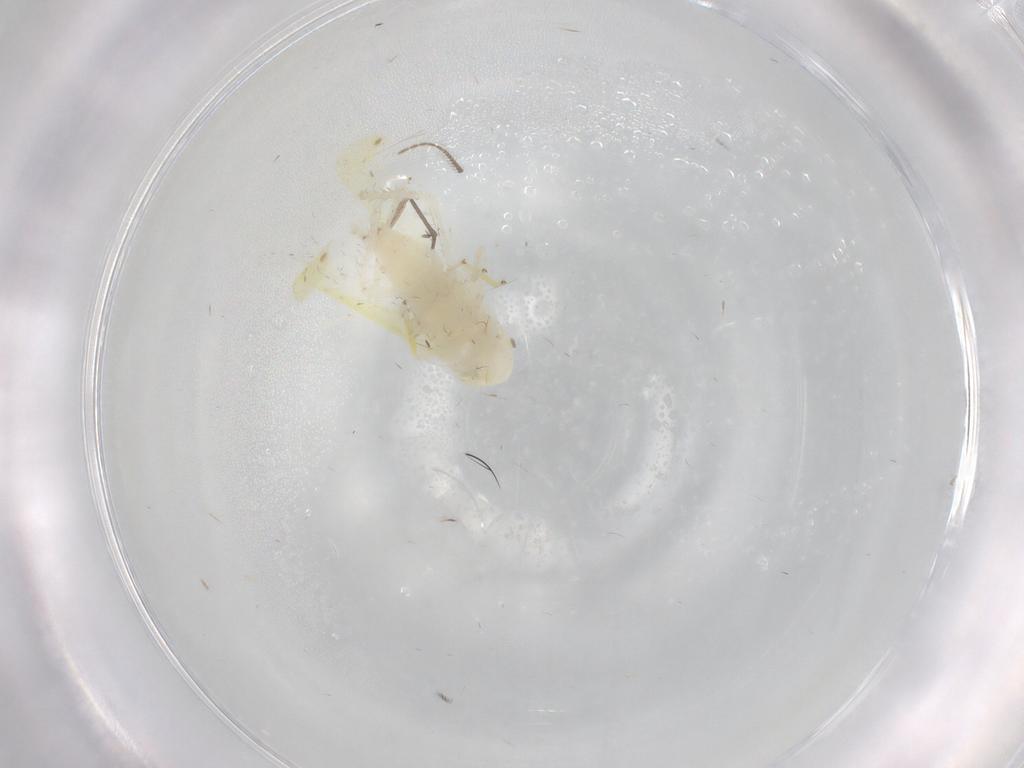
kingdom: Animalia
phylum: Arthropoda
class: Insecta
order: Hemiptera
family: Cicadellidae
